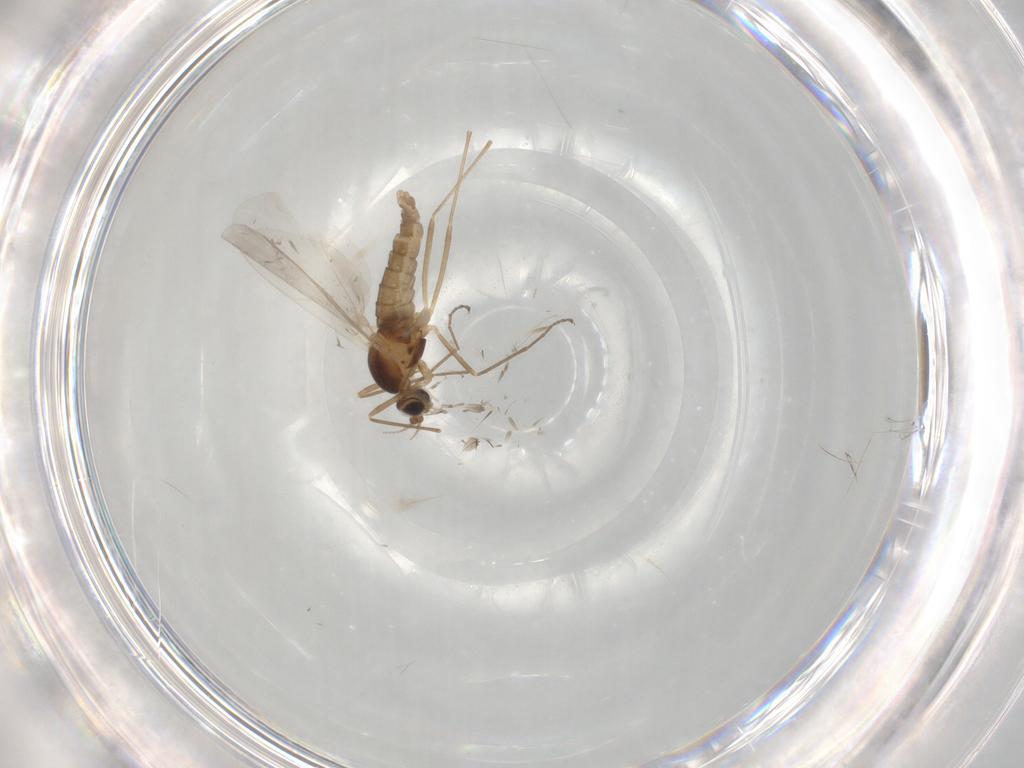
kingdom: Animalia
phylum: Arthropoda
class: Insecta
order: Diptera
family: Cecidomyiidae
